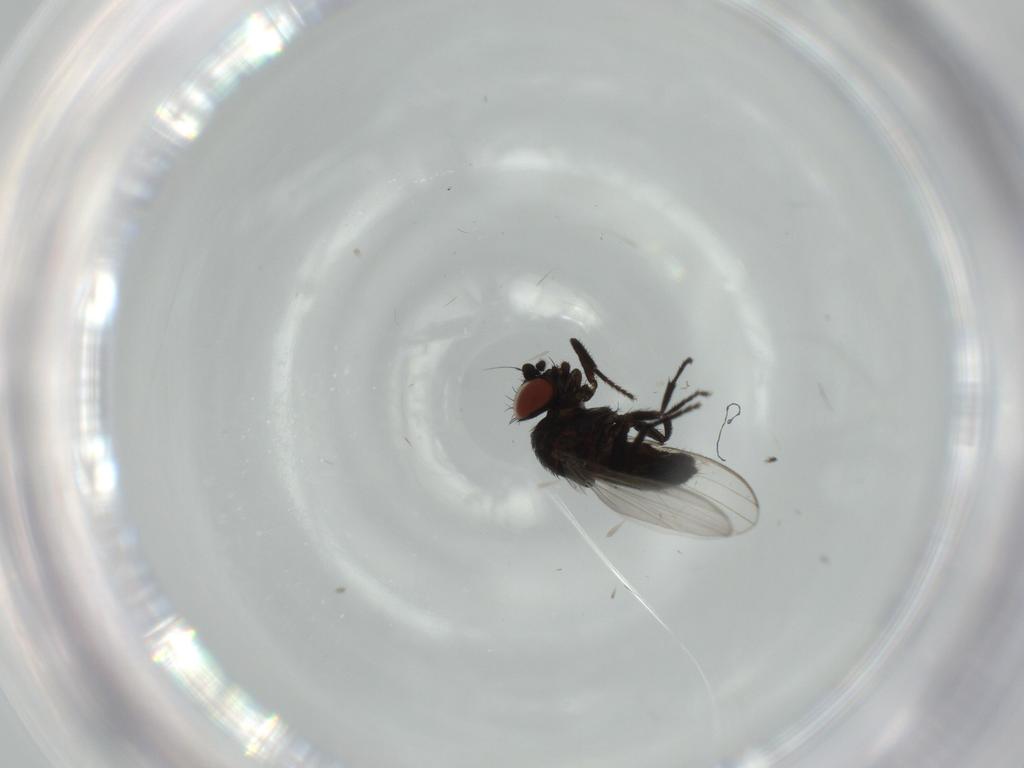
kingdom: Animalia
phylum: Arthropoda
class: Insecta
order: Diptera
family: Milichiidae
